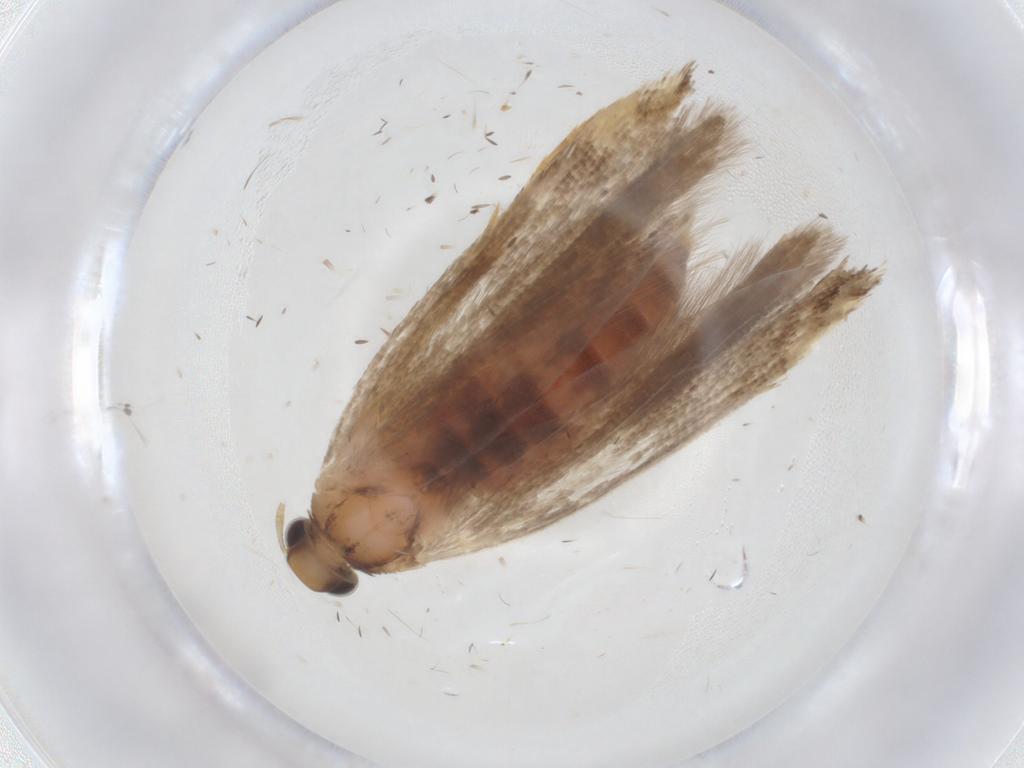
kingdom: Animalia
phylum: Arthropoda
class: Insecta
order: Lepidoptera
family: Gelechiidae
